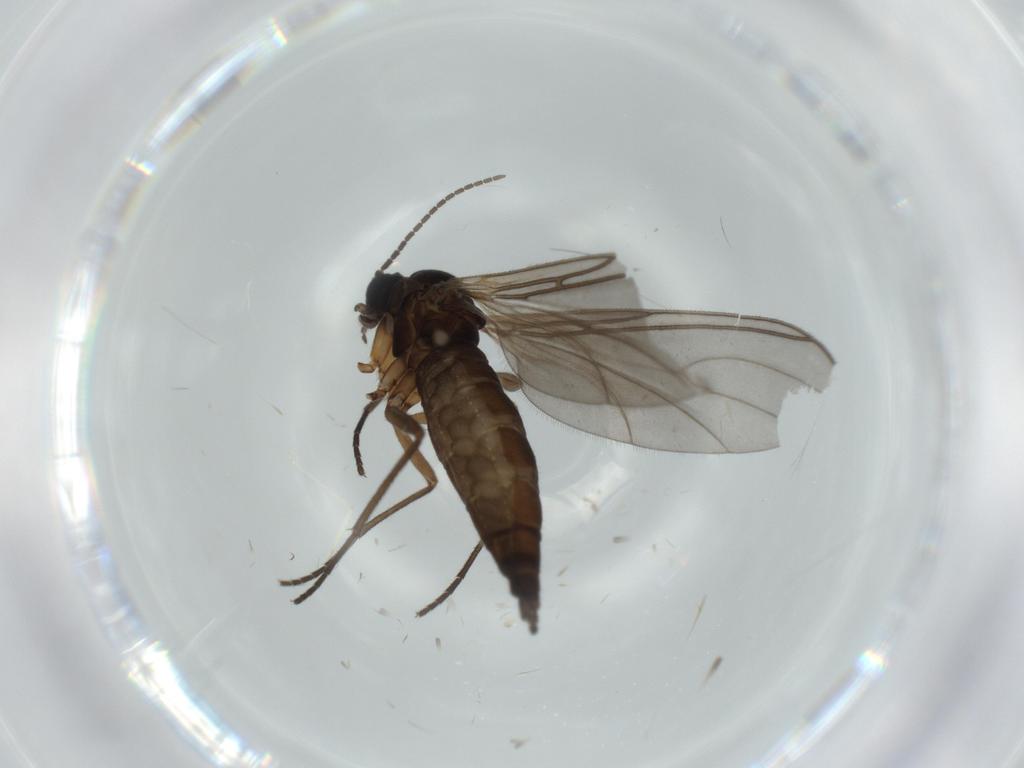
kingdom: Animalia
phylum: Arthropoda
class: Insecta
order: Diptera
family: Sciaridae
